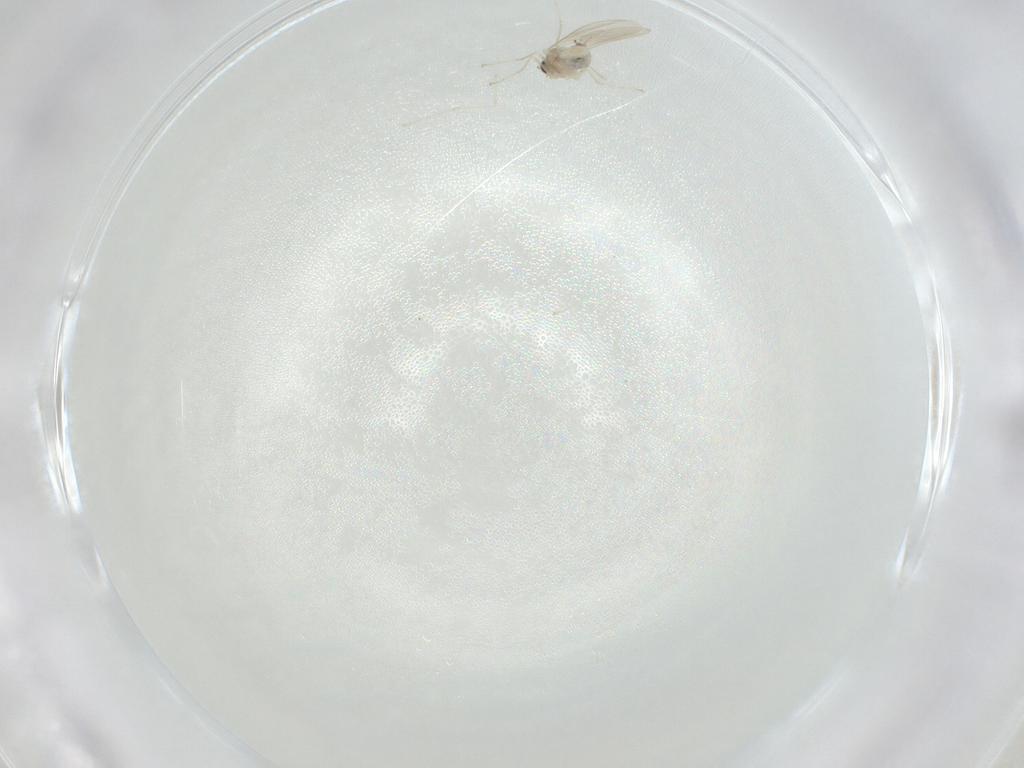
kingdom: Animalia
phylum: Arthropoda
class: Insecta
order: Diptera
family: Cecidomyiidae
